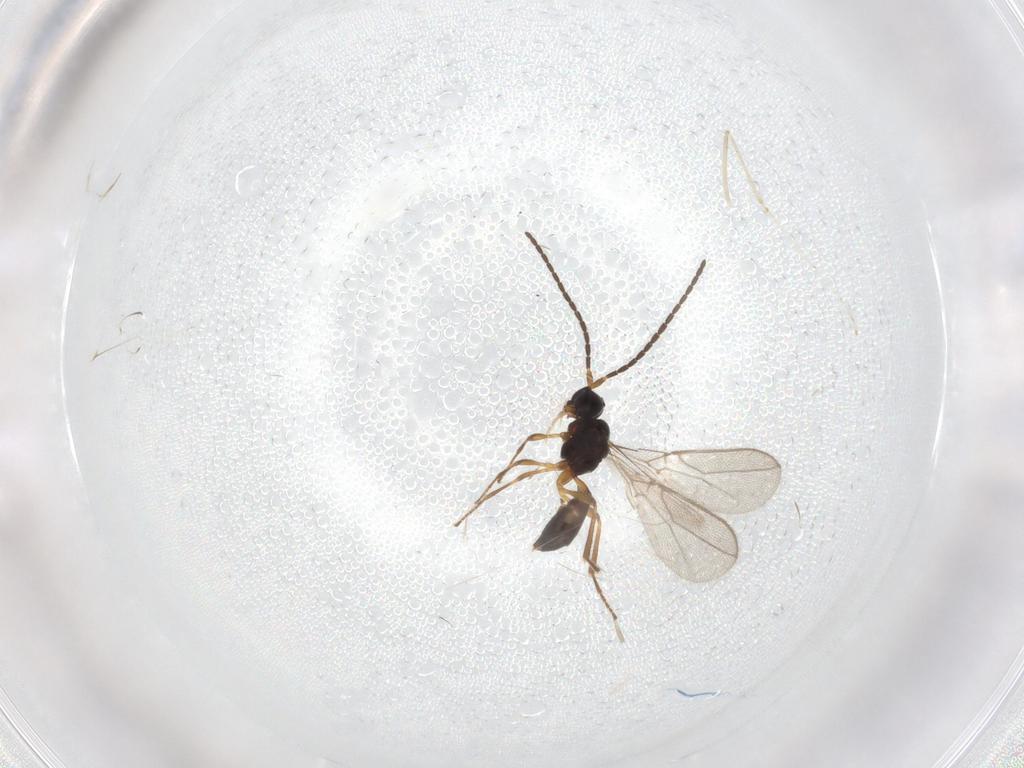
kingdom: Animalia
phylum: Arthropoda
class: Insecta
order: Hymenoptera
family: Braconidae
